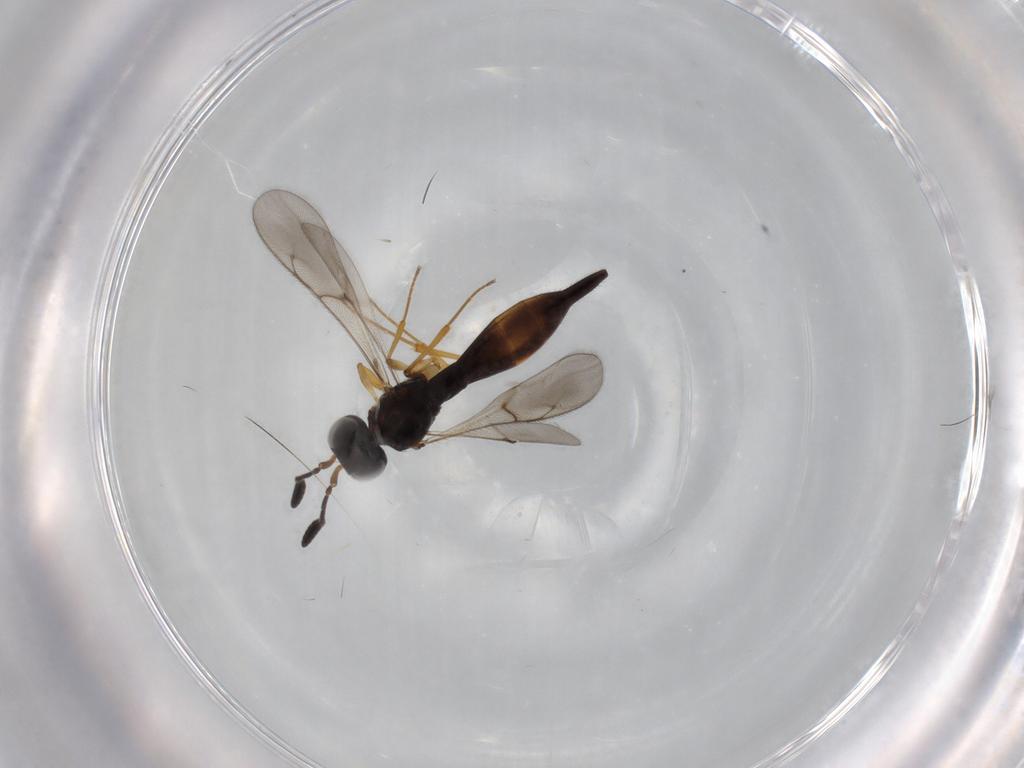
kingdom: Animalia
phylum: Arthropoda
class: Insecta
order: Hymenoptera
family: Scelionidae
